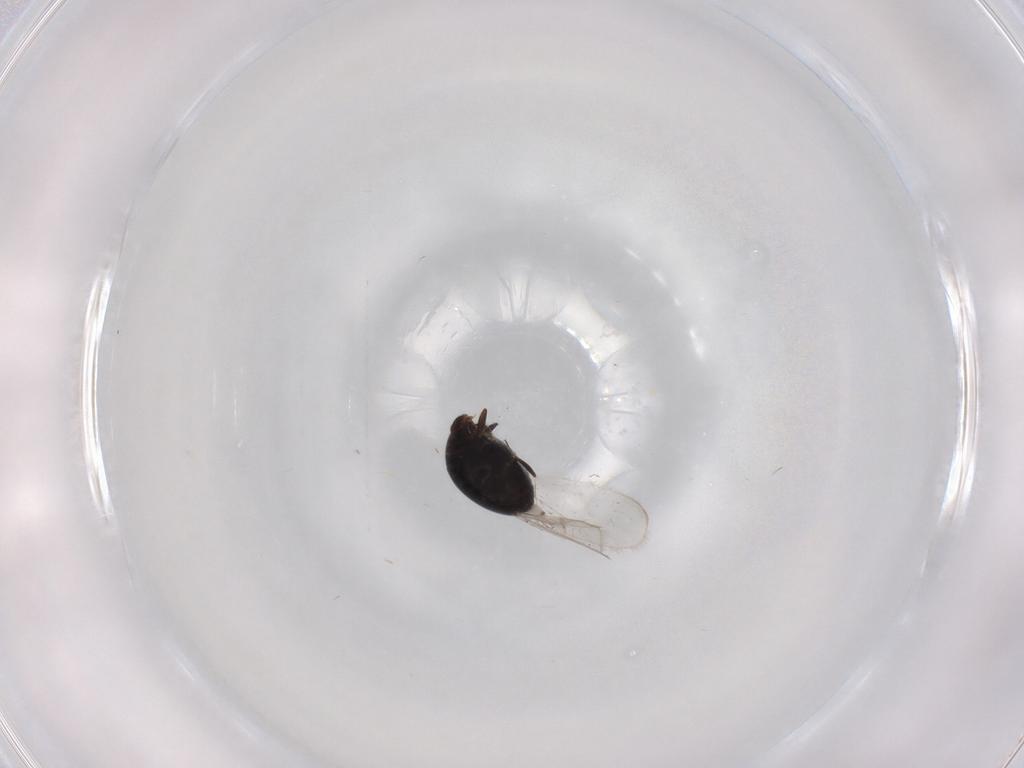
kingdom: Animalia
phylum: Arthropoda
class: Insecta
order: Coleoptera
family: Corylophidae
